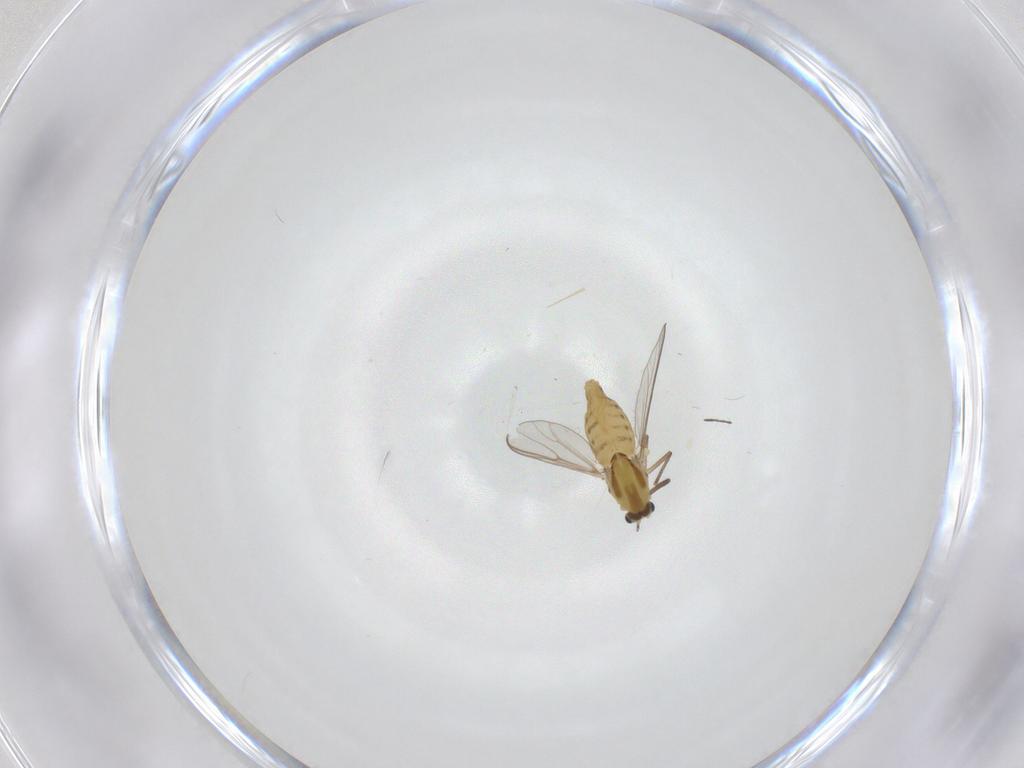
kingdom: Animalia
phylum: Arthropoda
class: Insecta
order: Diptera
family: Chironomidae
